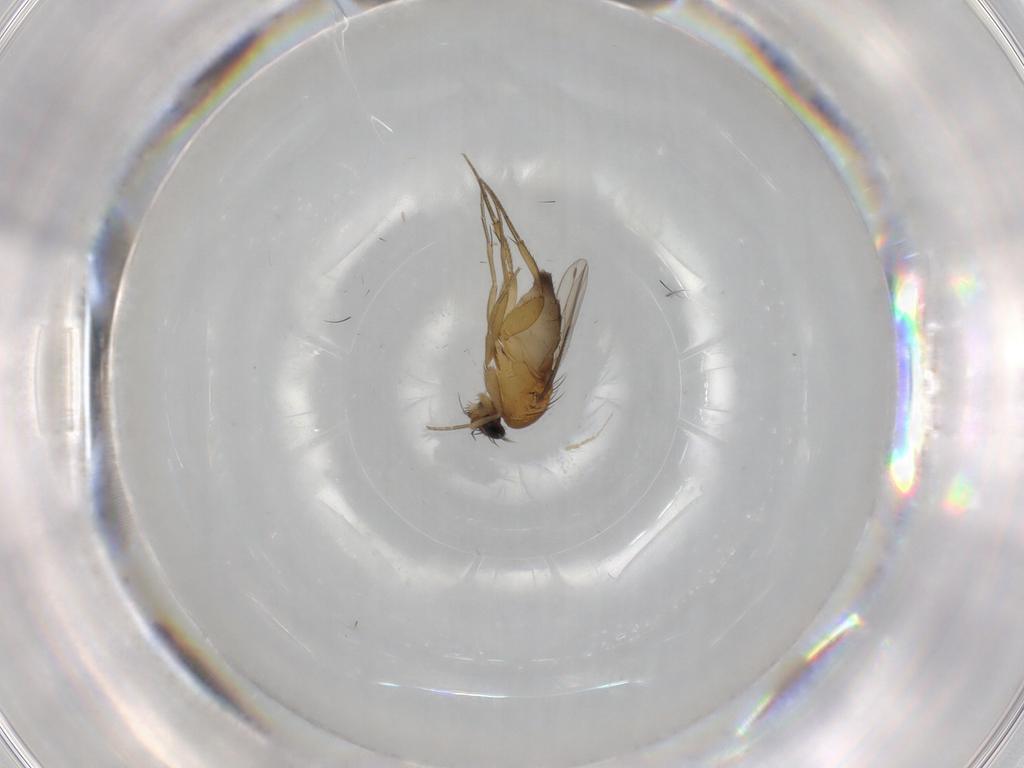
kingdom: Animalia
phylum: Arthropoda
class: Insecta
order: Diptera
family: Phoridae
